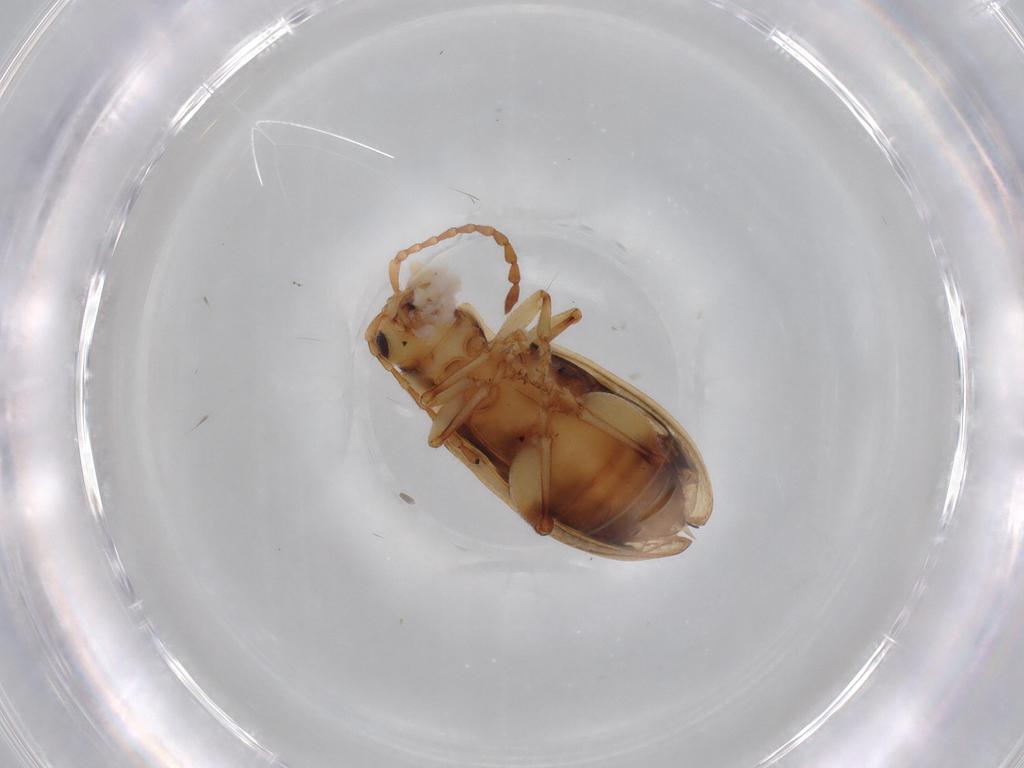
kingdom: Animalia
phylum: Arthropoda
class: Insecta
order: Coleoptera
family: Chrysomelidae
